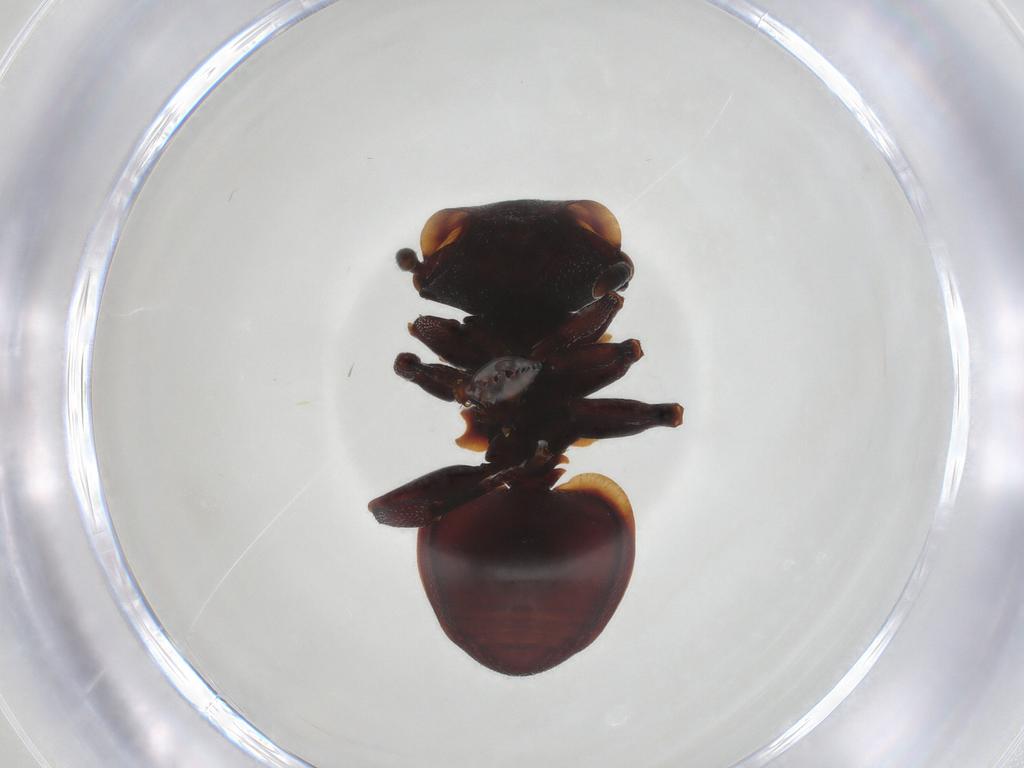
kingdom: Animalia
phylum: Arthropoda
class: Insecta
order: Hymenoptera
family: Formicidae
